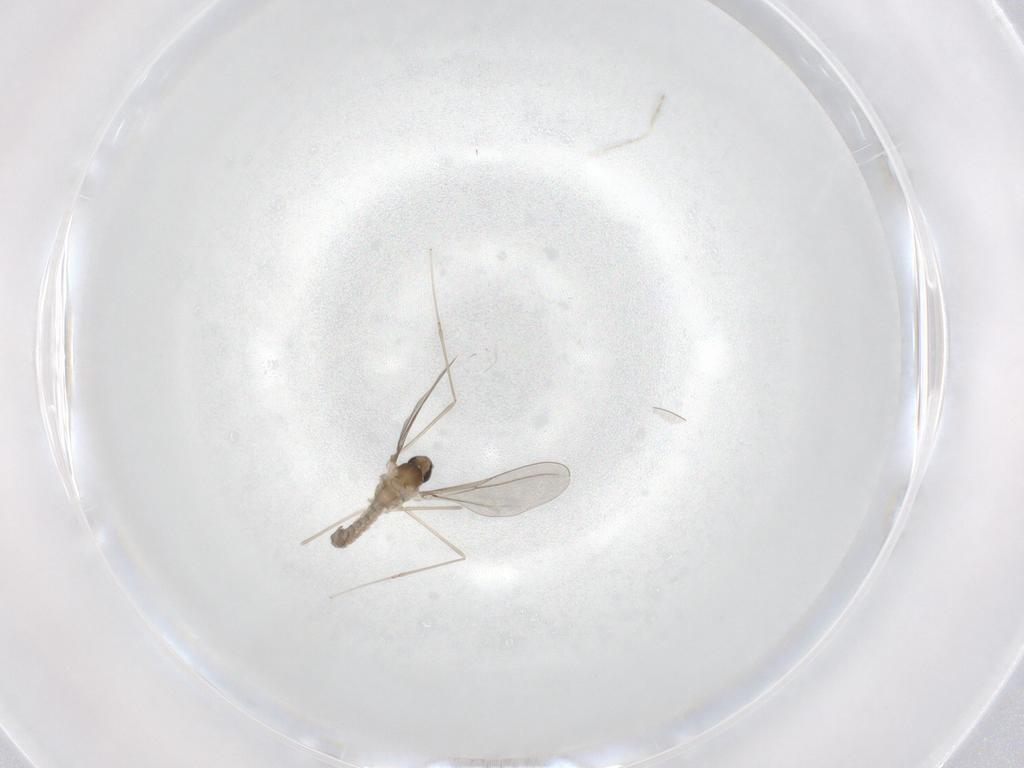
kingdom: Animalia
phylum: Arthropoda
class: Insecta
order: Diptera
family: Cecidomyiidae
